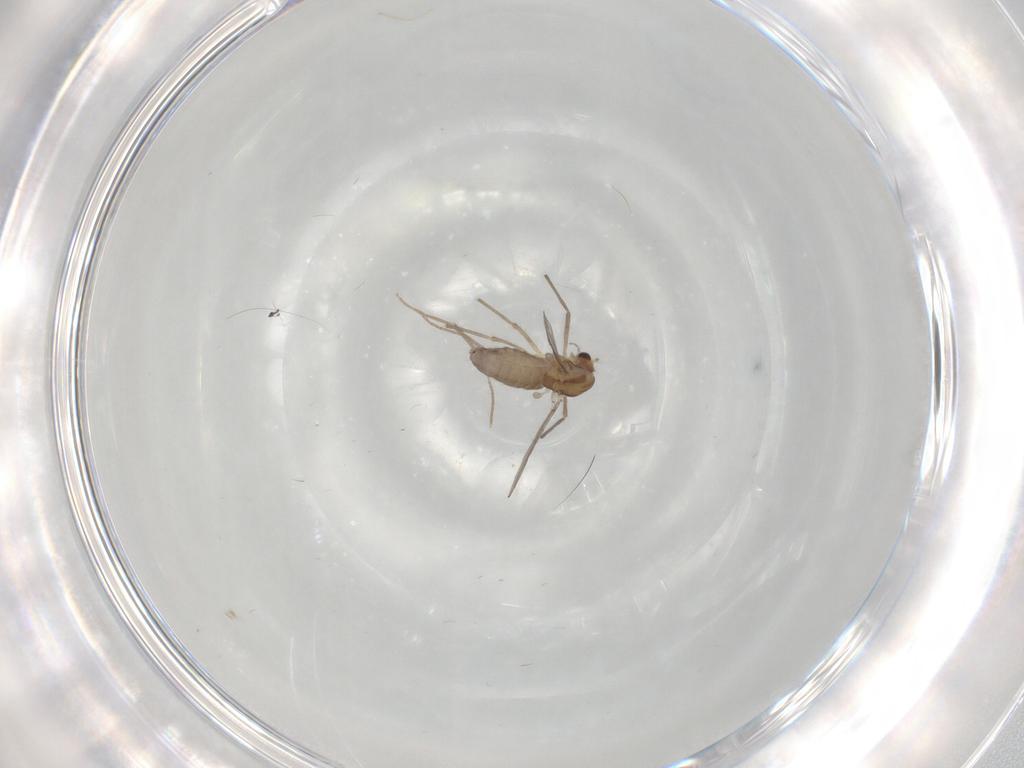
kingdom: Animalia
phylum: Arthropoda
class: Insecta
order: Diptera
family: Chironomidae
